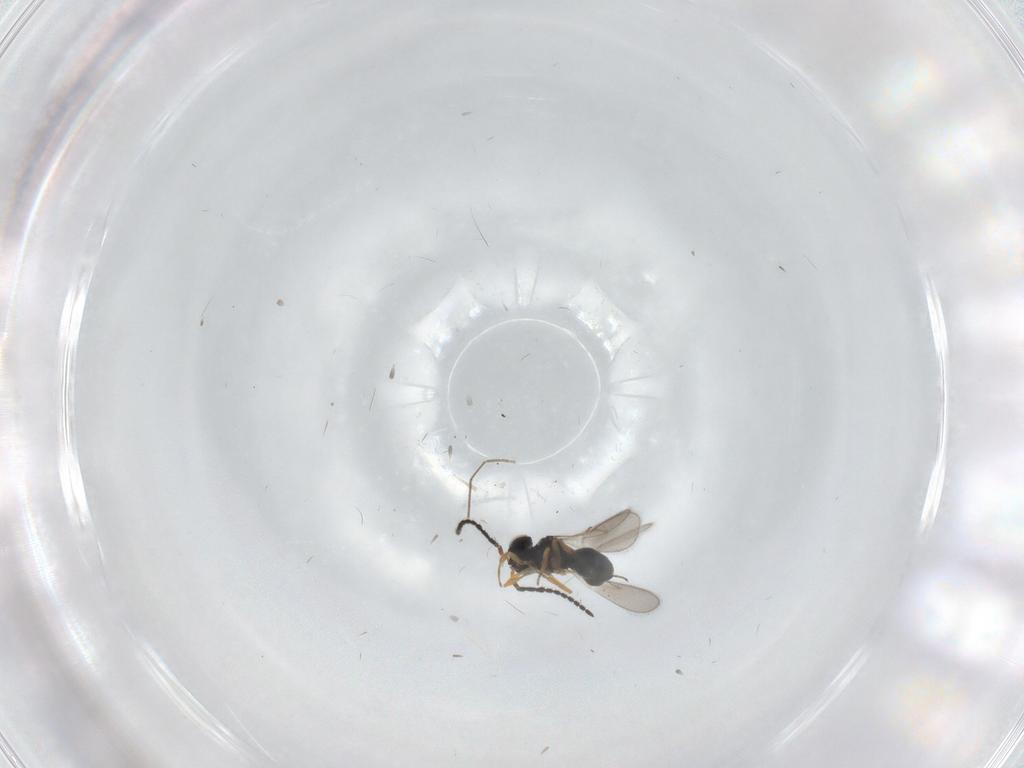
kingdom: Animalia
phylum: Arthropoda
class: Insecta
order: Hymenoptera
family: Scelionidae
